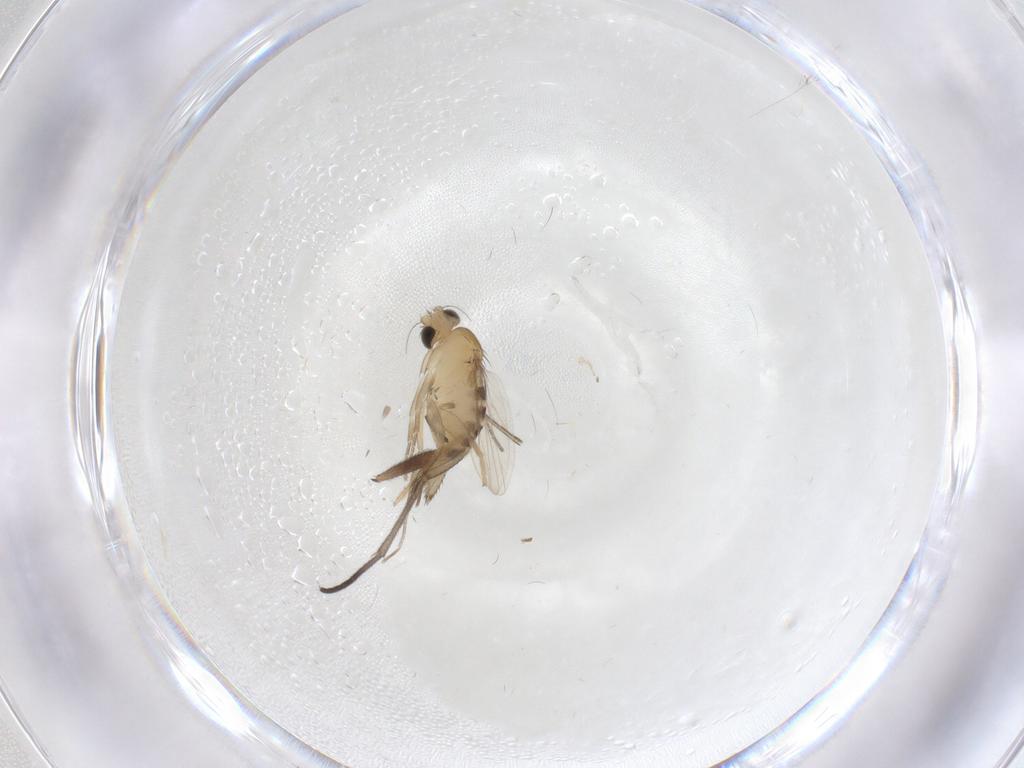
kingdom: Animalia
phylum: Arthropoda
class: Insecta
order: Diptera
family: Phoridae
